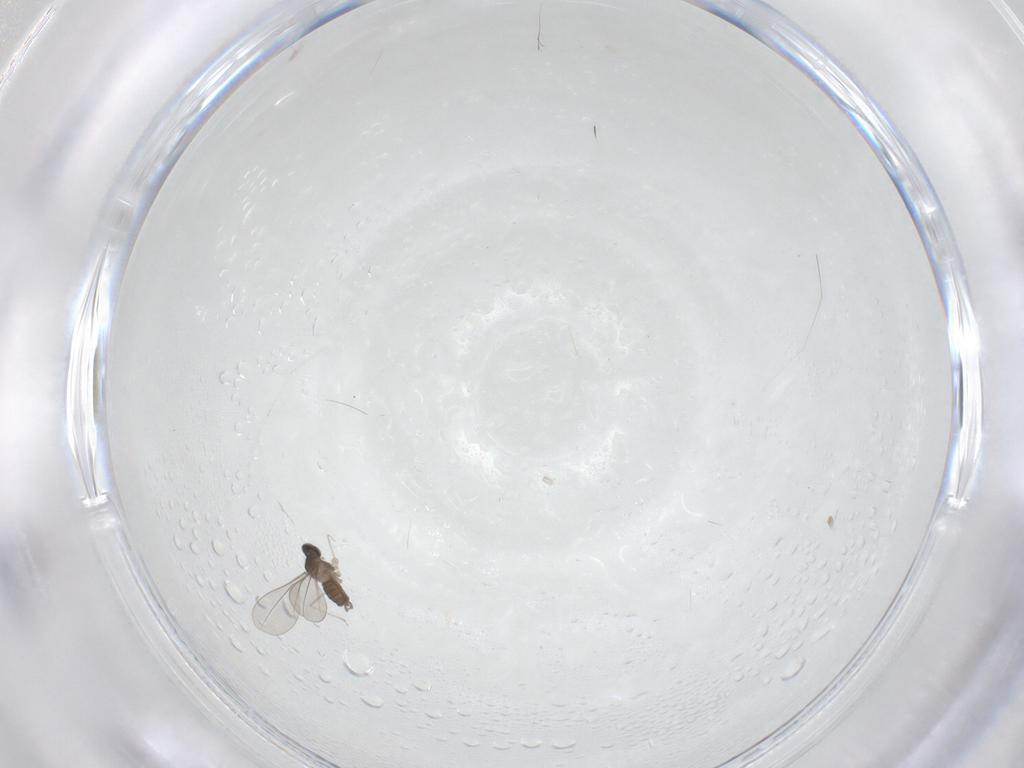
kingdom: Animalia
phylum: Arthropoda
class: Insecta
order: Diptera
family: Cecidomyiidae
